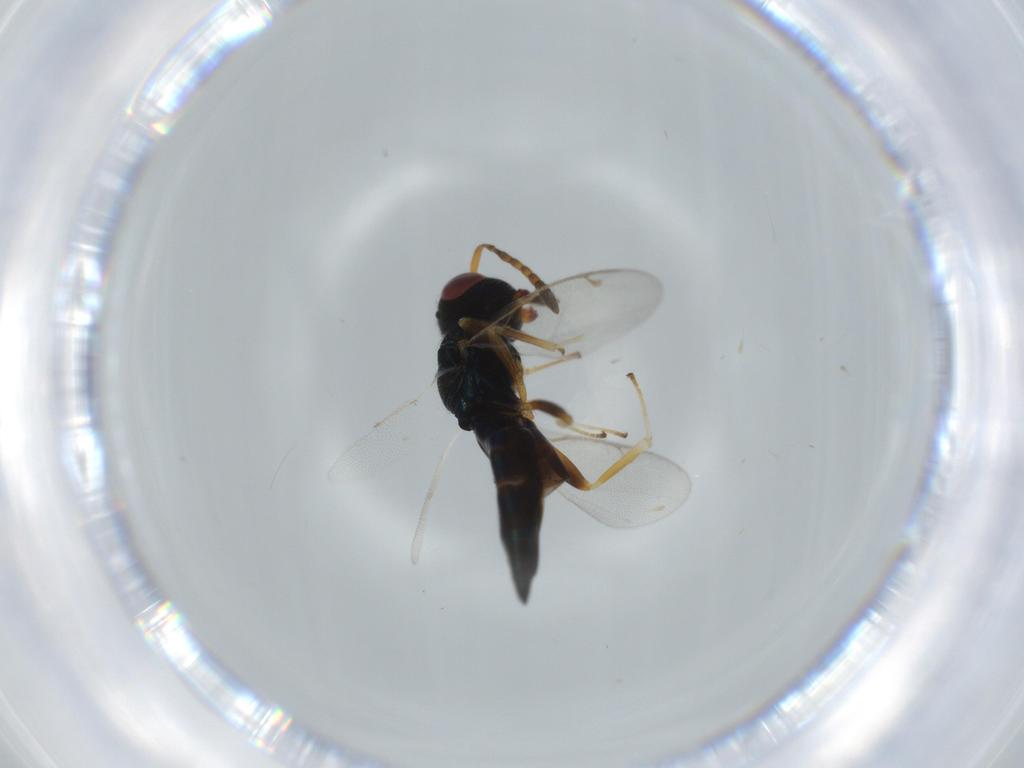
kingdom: Animalia
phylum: Arthropoda
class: Insecta
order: Hymenoptera
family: Pteromalidae
